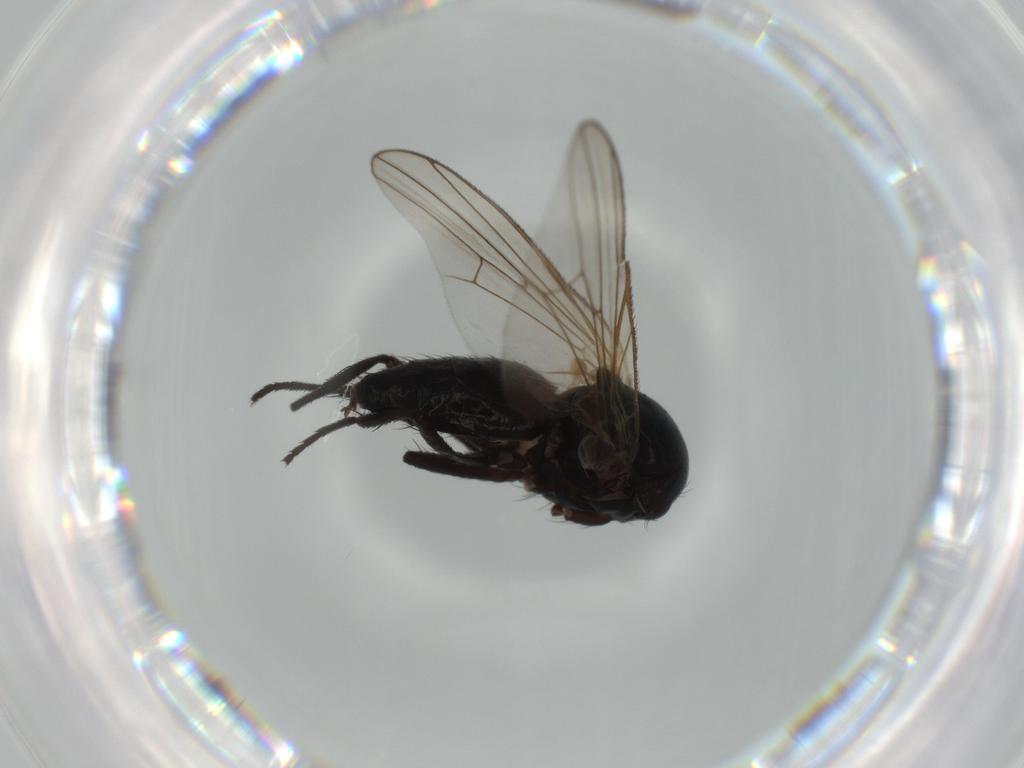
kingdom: Animalia
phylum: Arthropoda
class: Insecta
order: Diptera
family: Fannia
